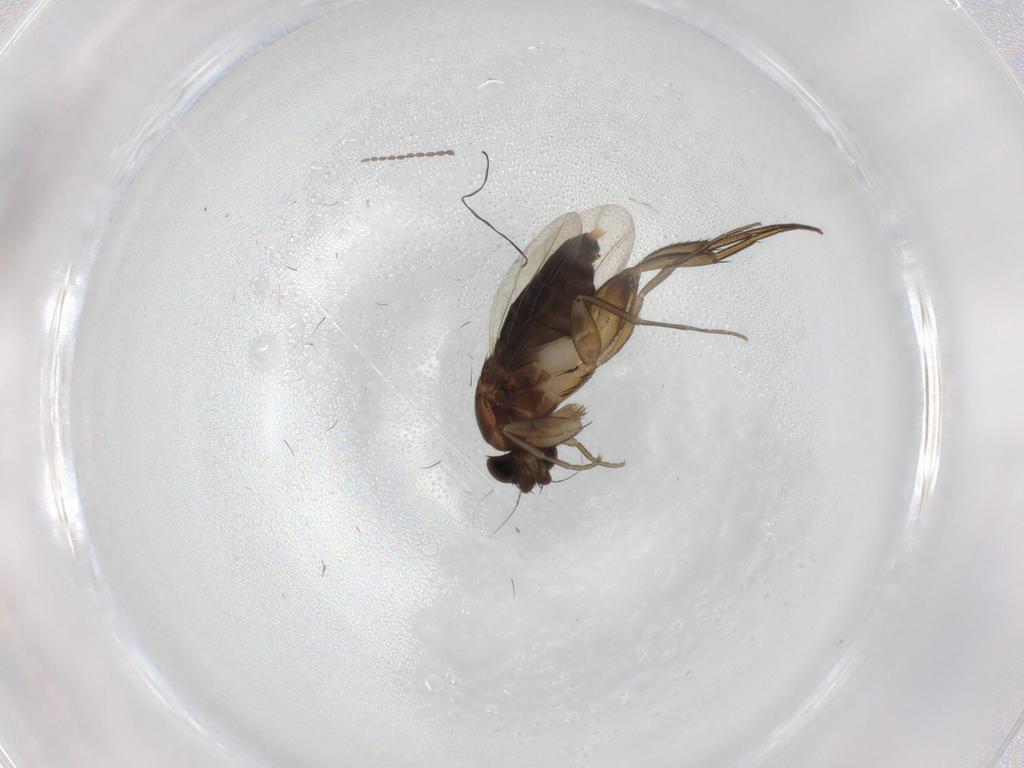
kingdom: Animalia
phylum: Arthropoda
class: Insecta
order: Diptera
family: Phoridae
